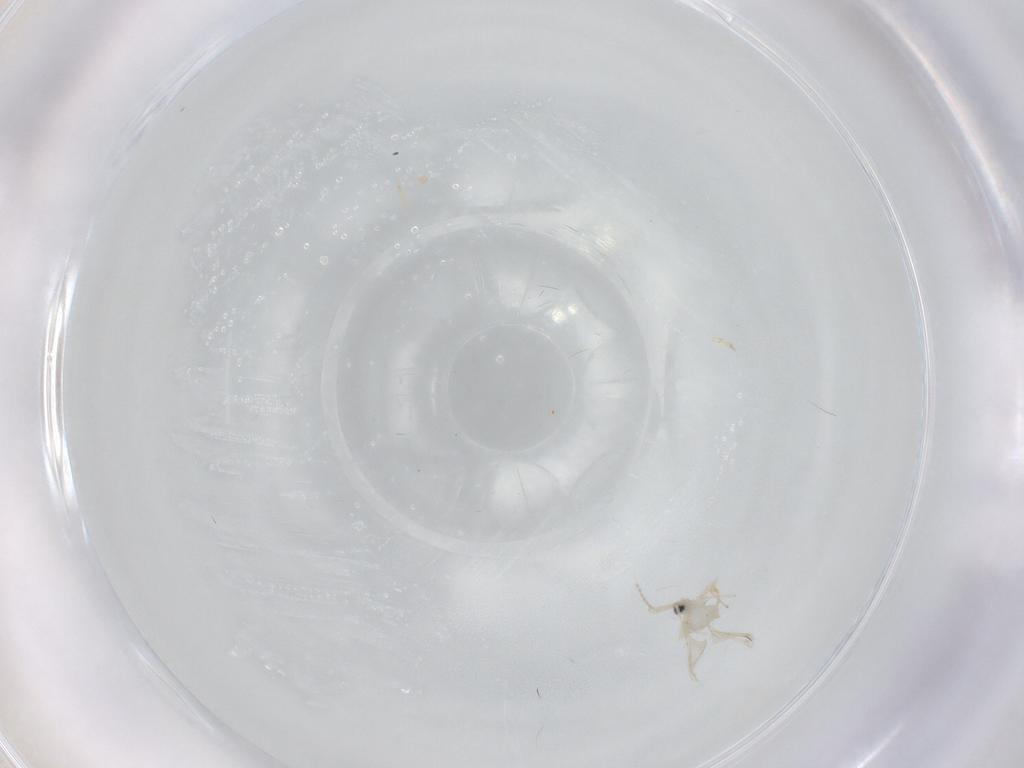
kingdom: Animalia
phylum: Arthropoda
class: Insecta
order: Diptera
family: Cecidomyiidae
